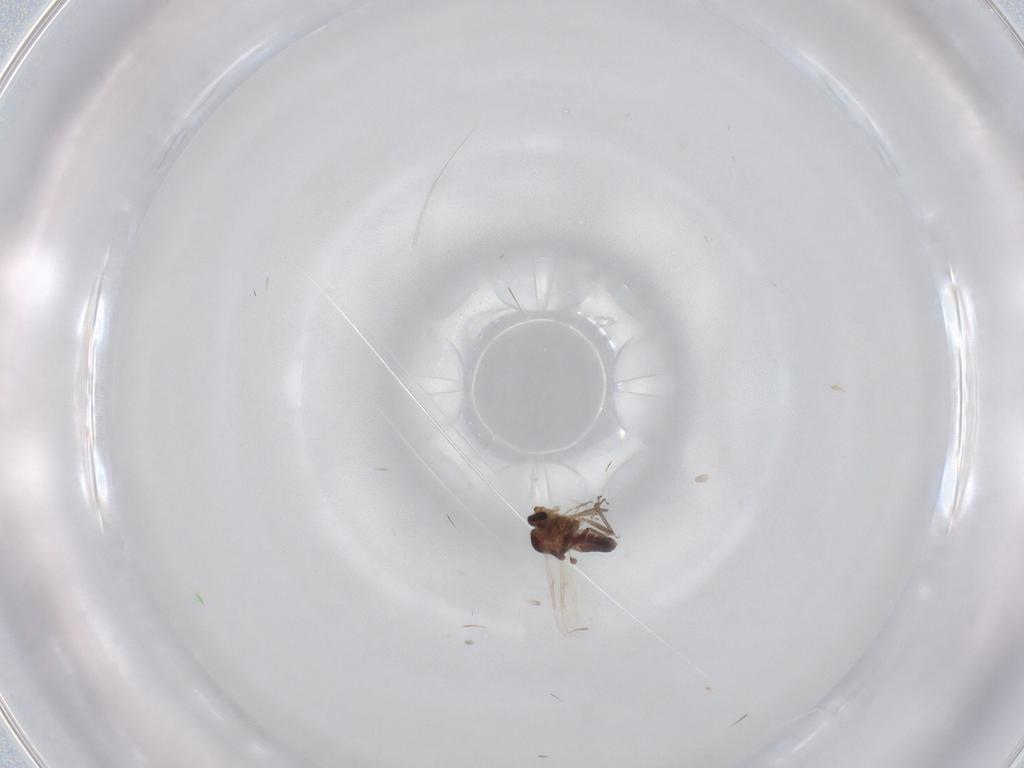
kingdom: Animalia
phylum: Arthropoda
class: Insecta
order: Diptera
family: Ceratopogonidae
